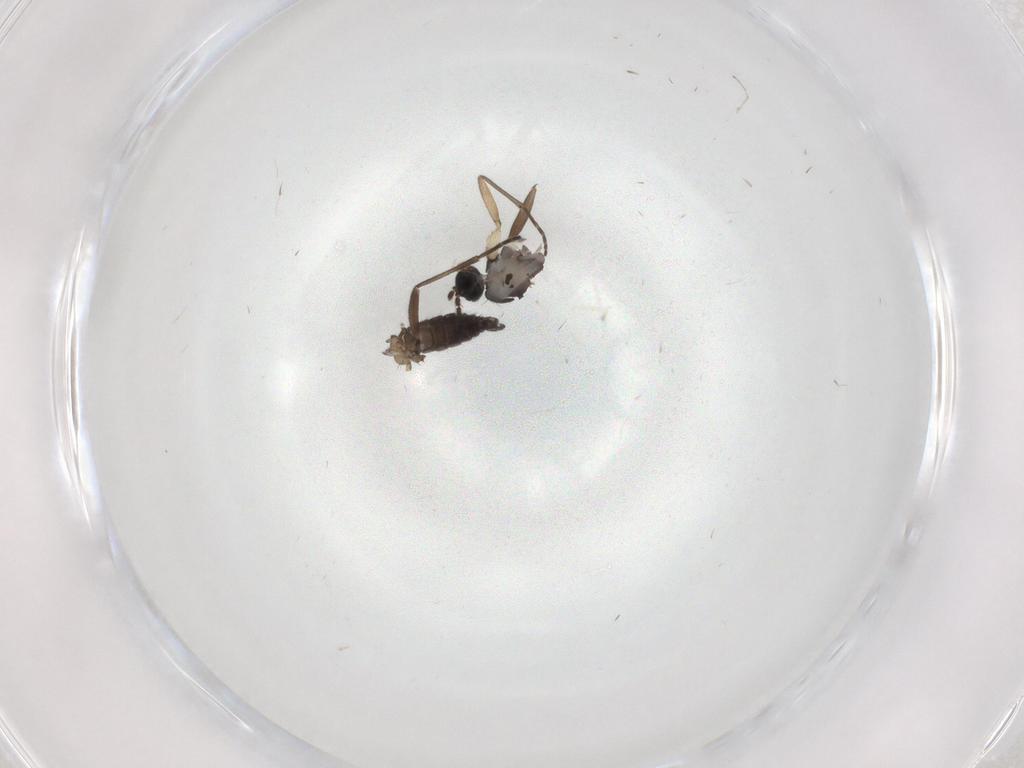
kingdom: Animalia
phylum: Arthropoda
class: Insecta
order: Diptera
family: Sciaridae
